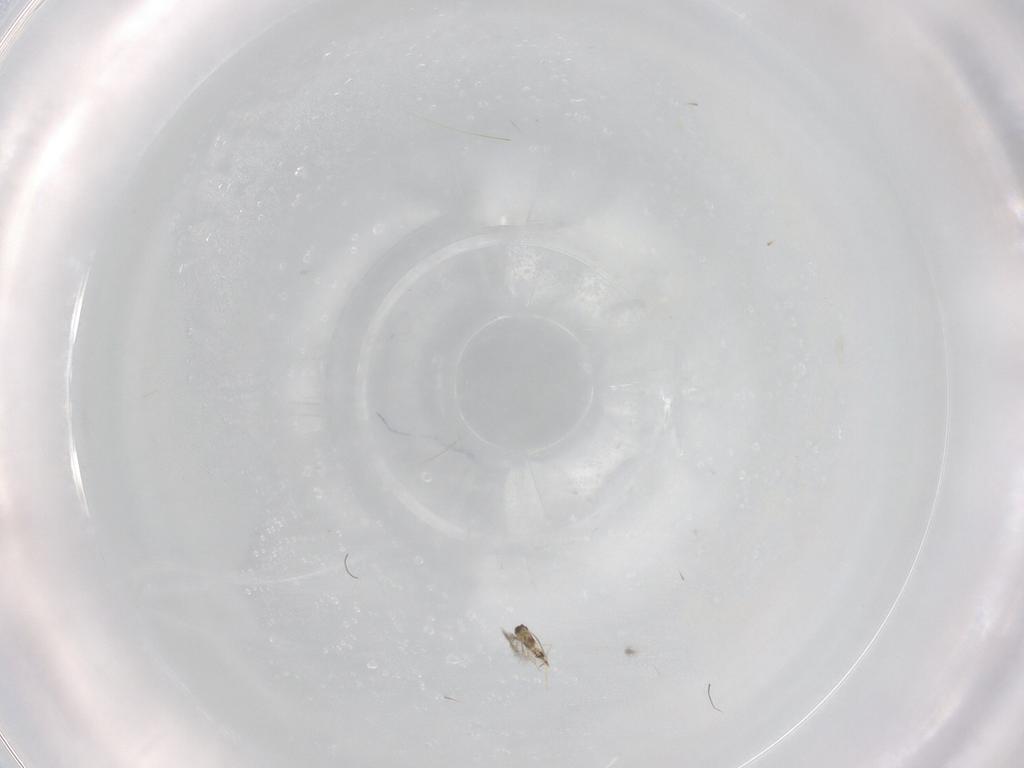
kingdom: Animalia
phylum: Arthropoda
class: Insecta
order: Hymenoptera
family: Mymaridae
